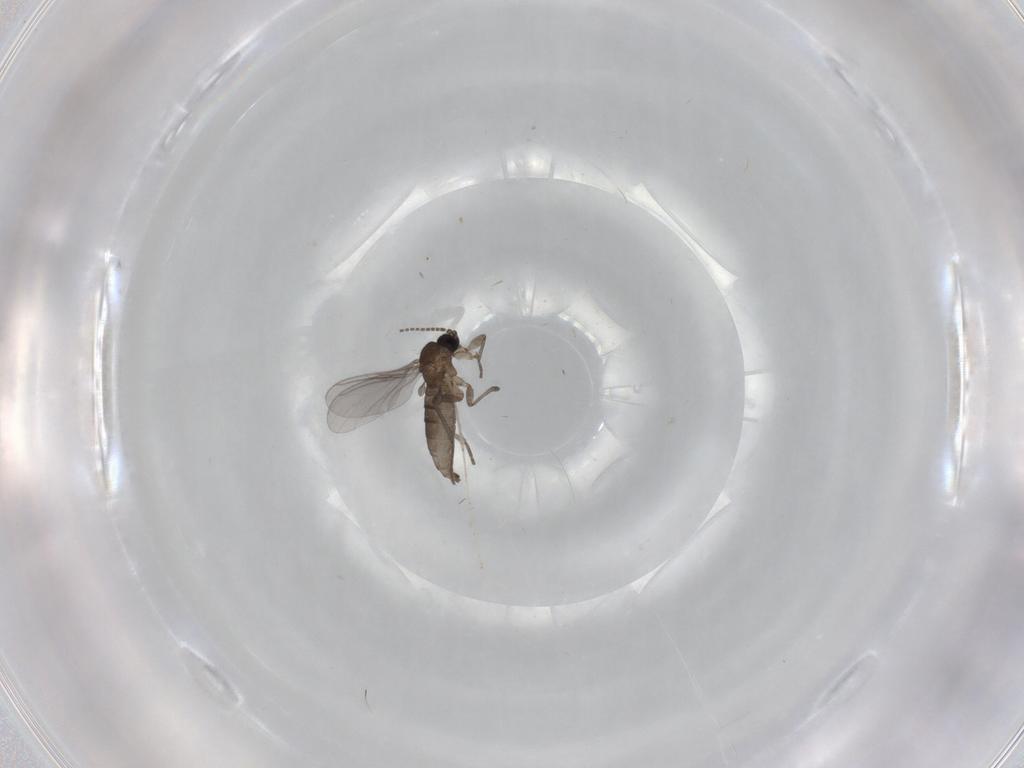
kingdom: Animalia
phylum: Arthropoda
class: Insecta
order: Diptera
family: Sciaridae
